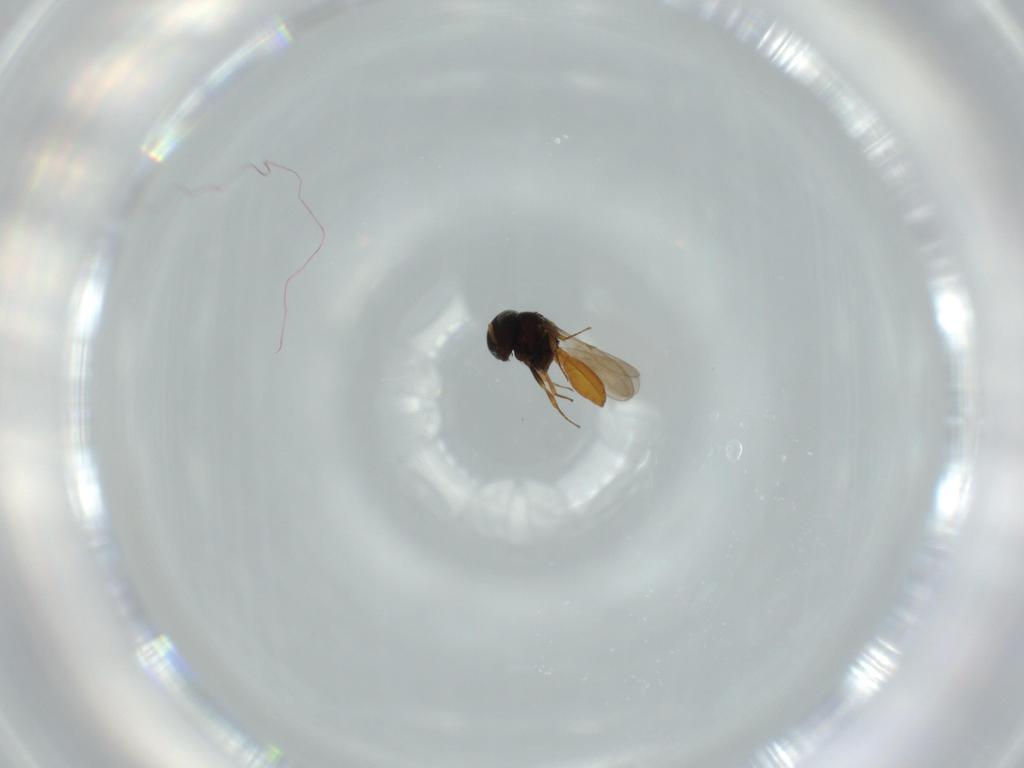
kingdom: Animalia
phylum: Arthropoda
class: Insecta
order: Hymenoptera
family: Scelionidae
